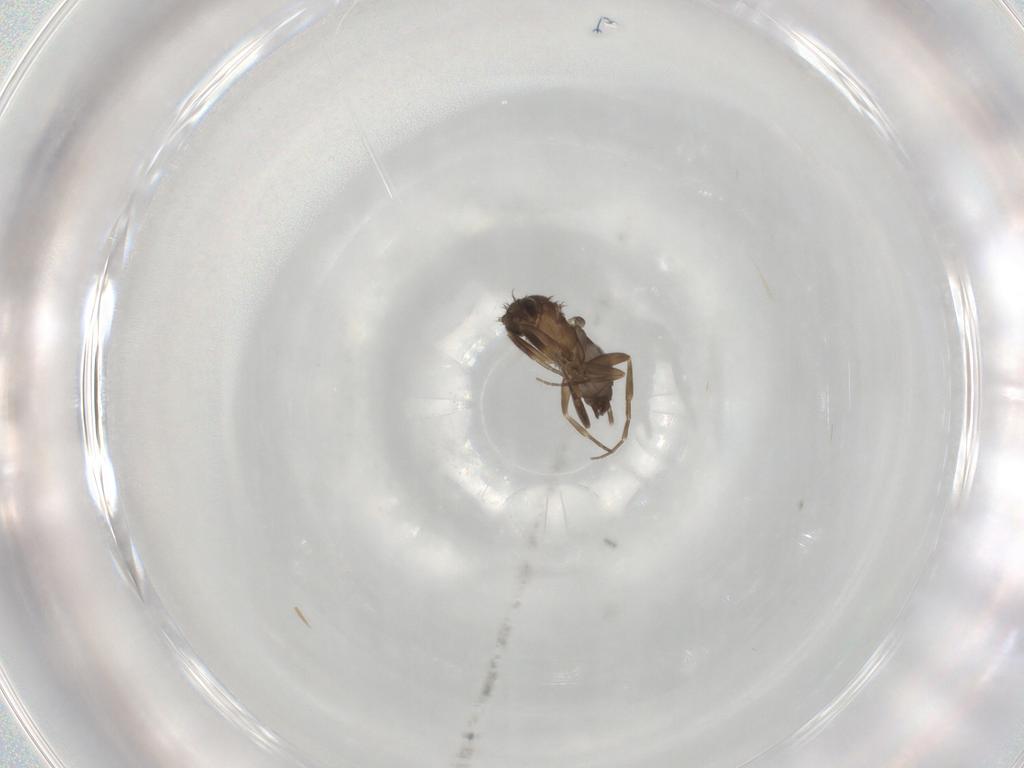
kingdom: Animalia
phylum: Arthropoda
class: Insecta
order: Diptera
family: Phoridae
